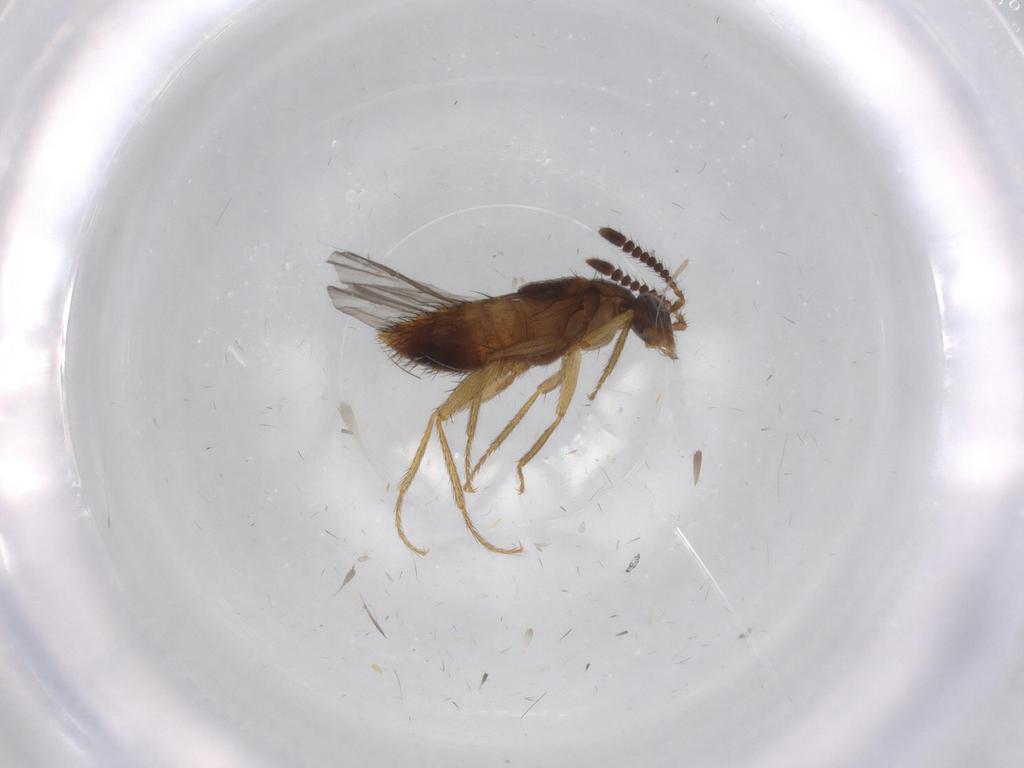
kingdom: Animalia
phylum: Arthropoda
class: Insecta
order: Coleoptera
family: Staphylinidae
